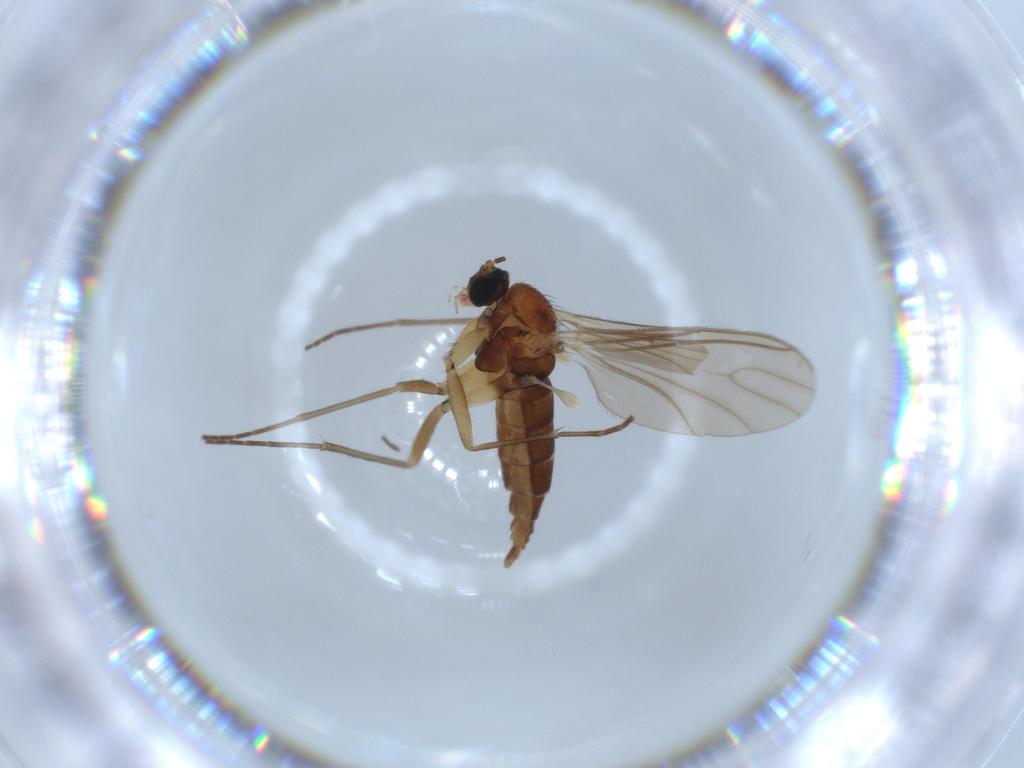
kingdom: Animalia
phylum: Arthropoda
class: Insecta
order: Diptera
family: Sciaridae
